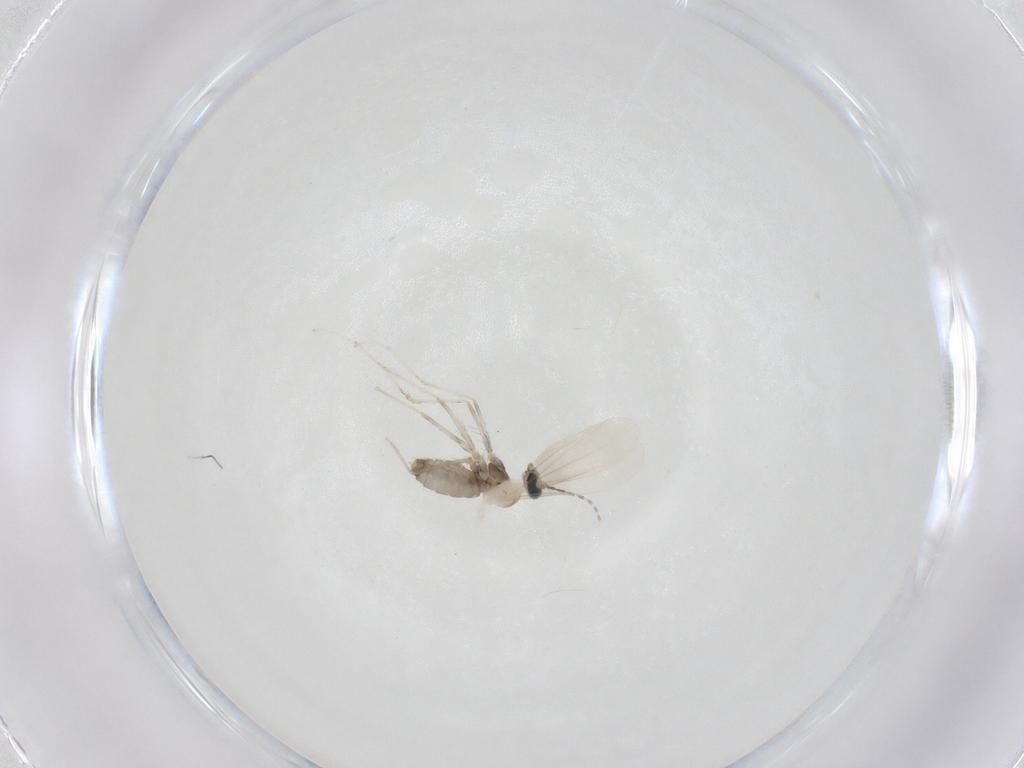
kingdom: Animalia
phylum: Arthropoda
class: Insecta
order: Diptera
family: Cecidomyiidae
